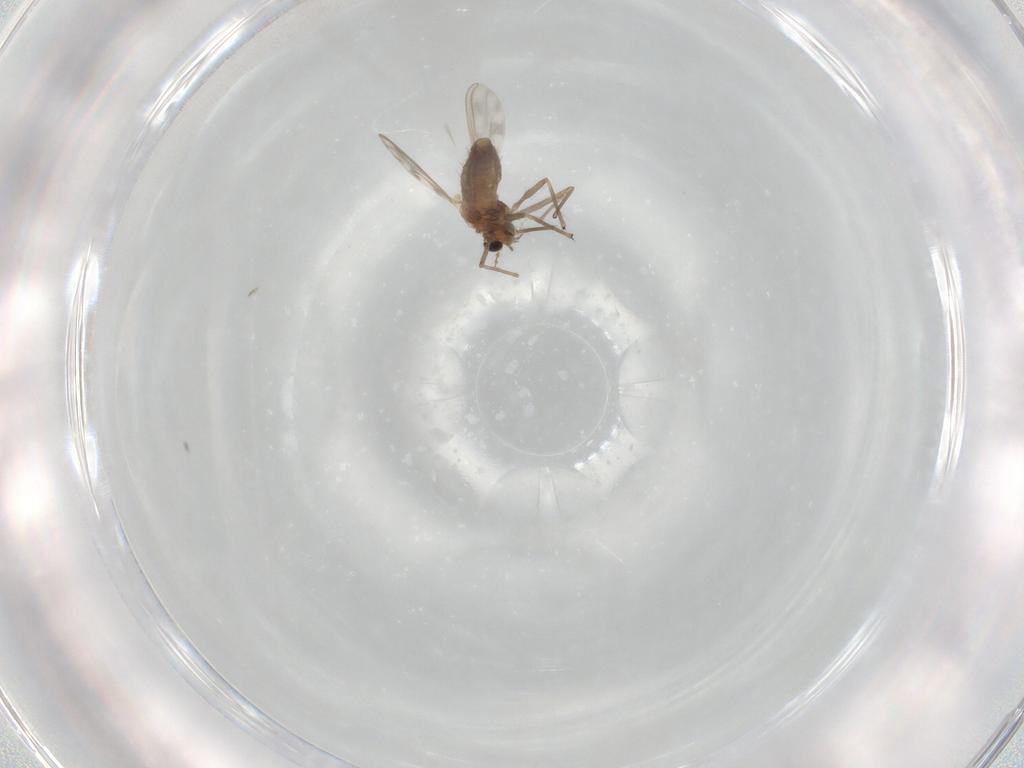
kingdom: Animalia
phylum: Arthropoda
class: Insecta
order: Diptera
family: Chironomidae
